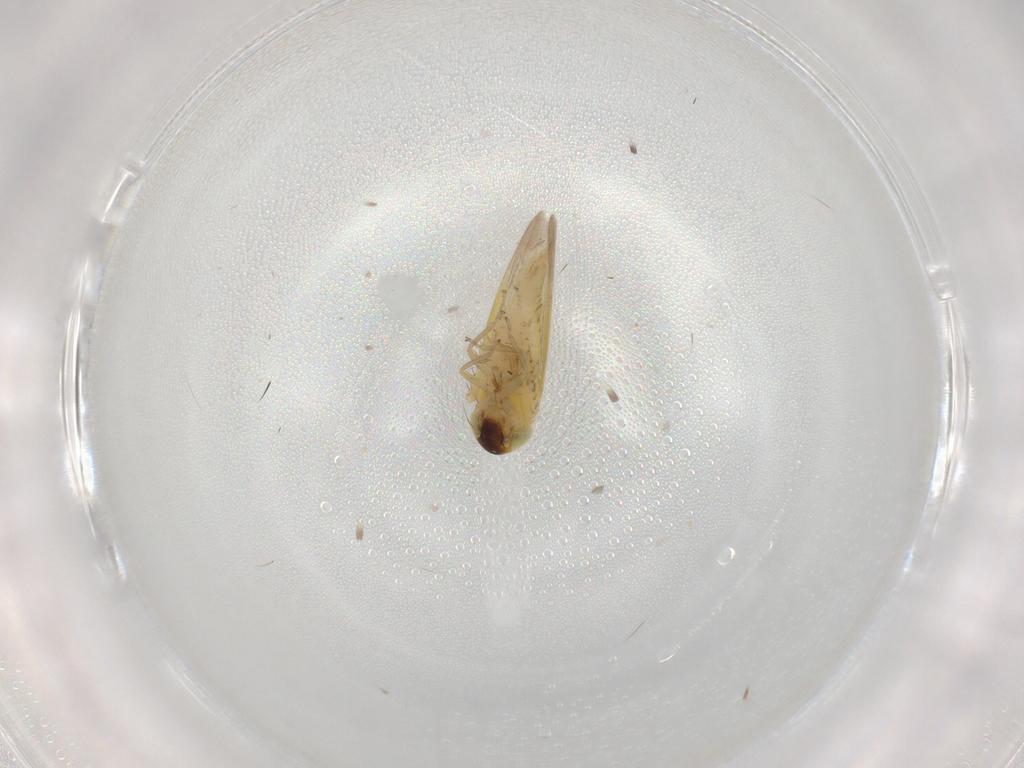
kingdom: Animalia
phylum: Arthropoda
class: Insecta
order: Hemiptera
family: Cicadellidae
